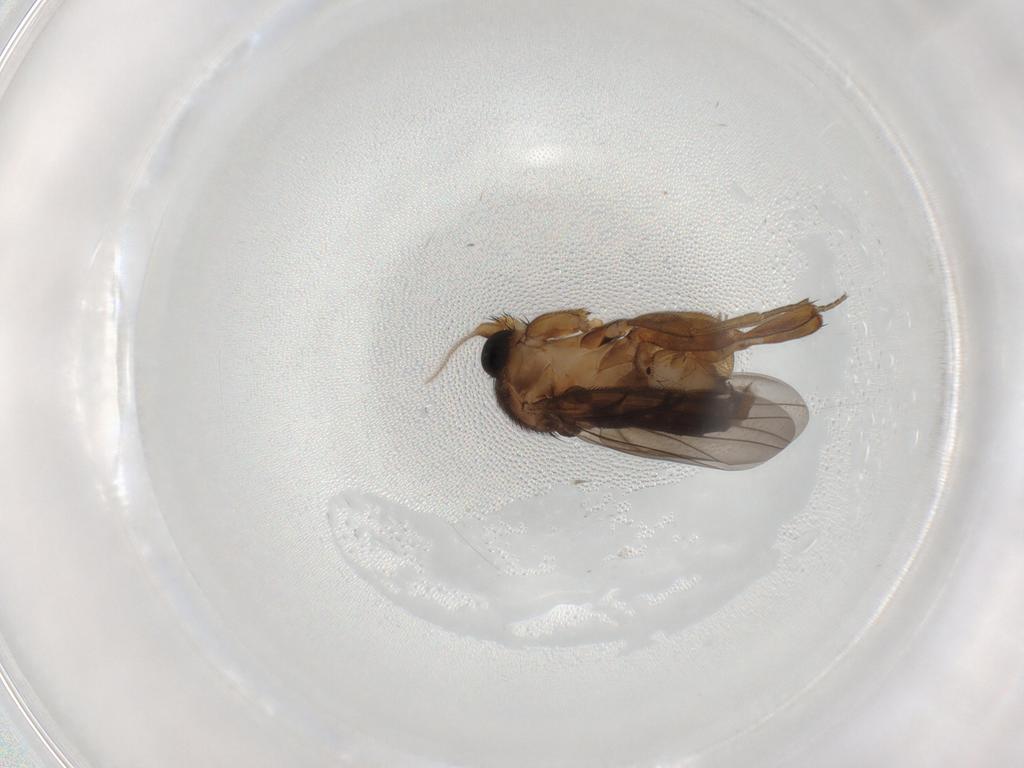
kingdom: Animalia
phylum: Arthropoda
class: Insecta
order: Diptera
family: Sciaridae
